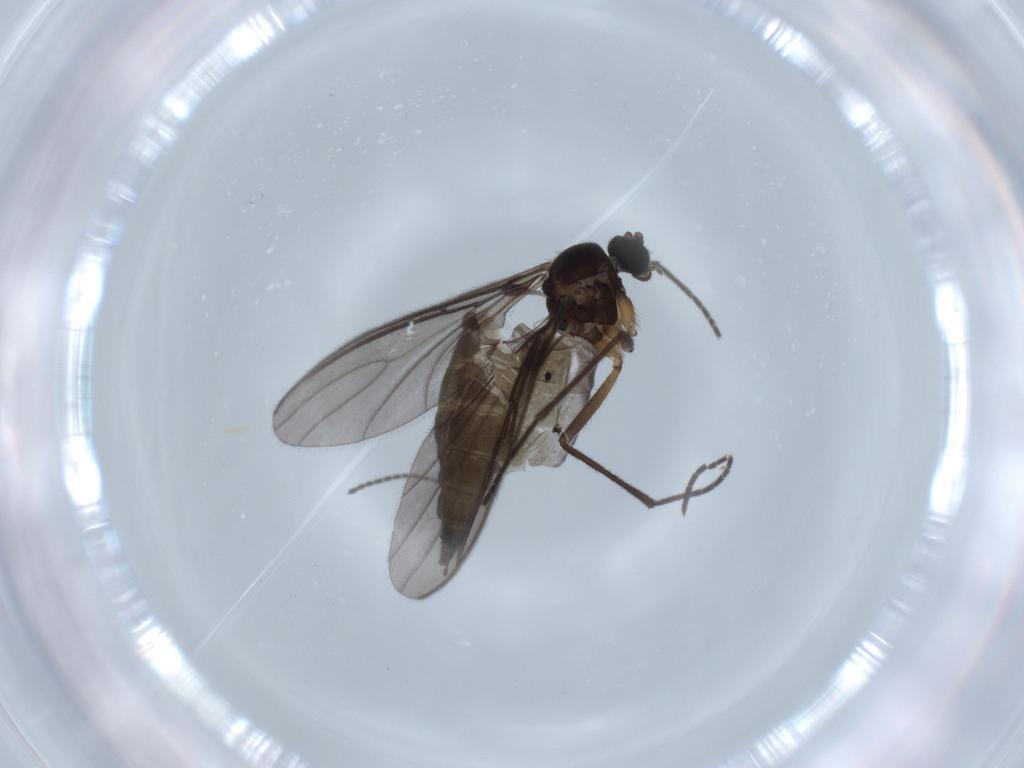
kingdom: Animalia
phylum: Arthropoda
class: Insecta
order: Diptera
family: Sciaridae
